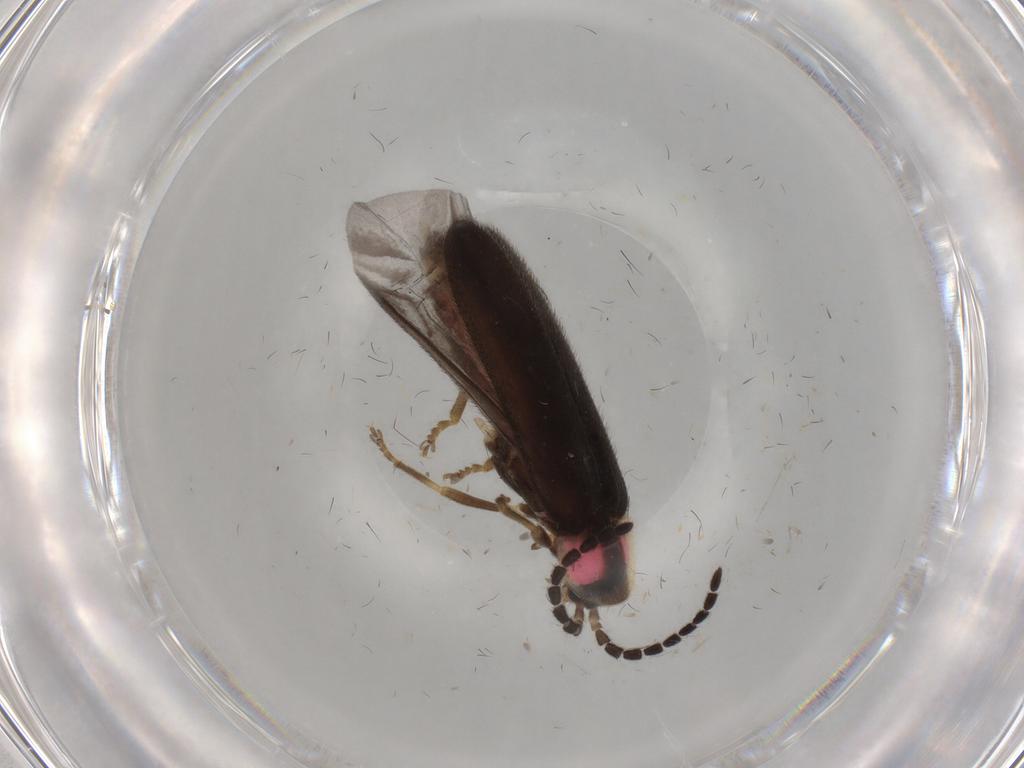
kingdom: Animalia
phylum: Arthropoda
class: Insecta
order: Coleoptera
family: Lampyridae
